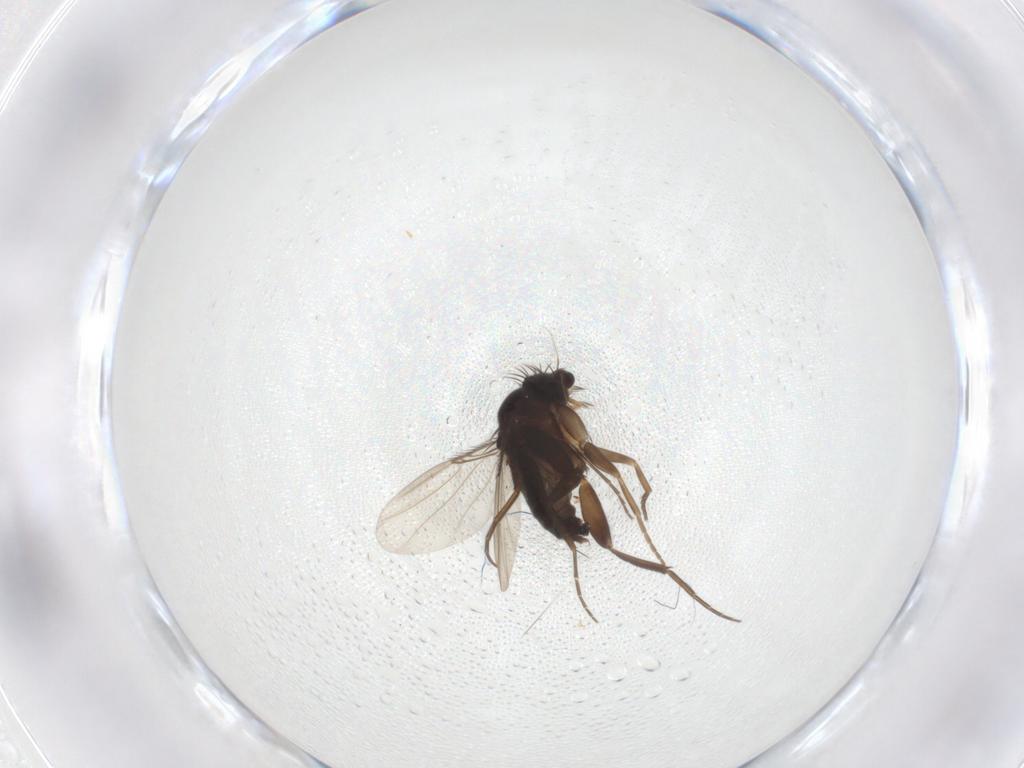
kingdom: Animalia
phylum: Arthropoda
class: Insecta
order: Diptera
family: Phoridae
